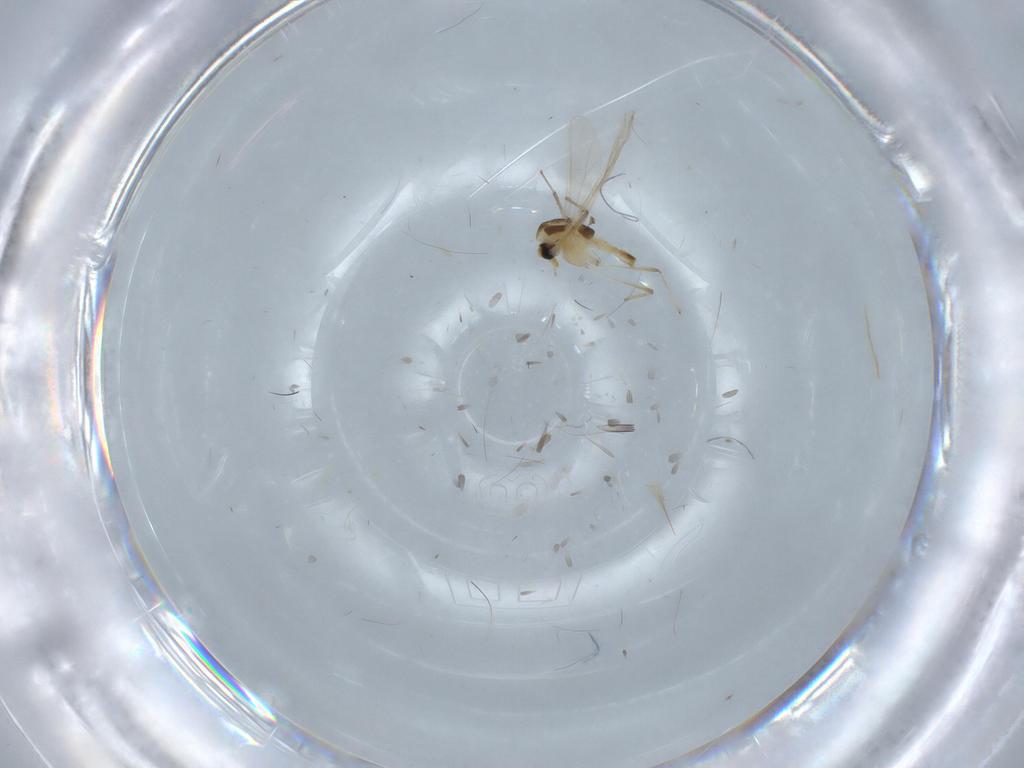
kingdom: Animalia
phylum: Arthropoda
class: Insecta
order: Diptera
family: Chironomidae
